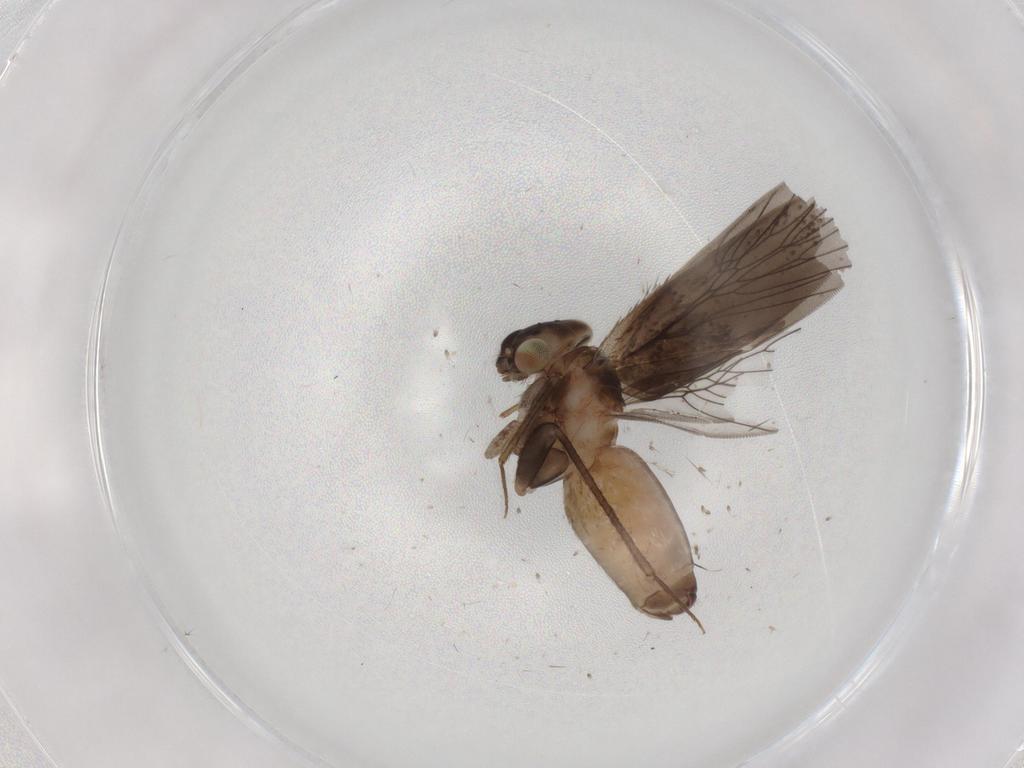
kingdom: Animalia
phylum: Arthropoda
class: Insecta
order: Psocodea
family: Lepidopsocidae
